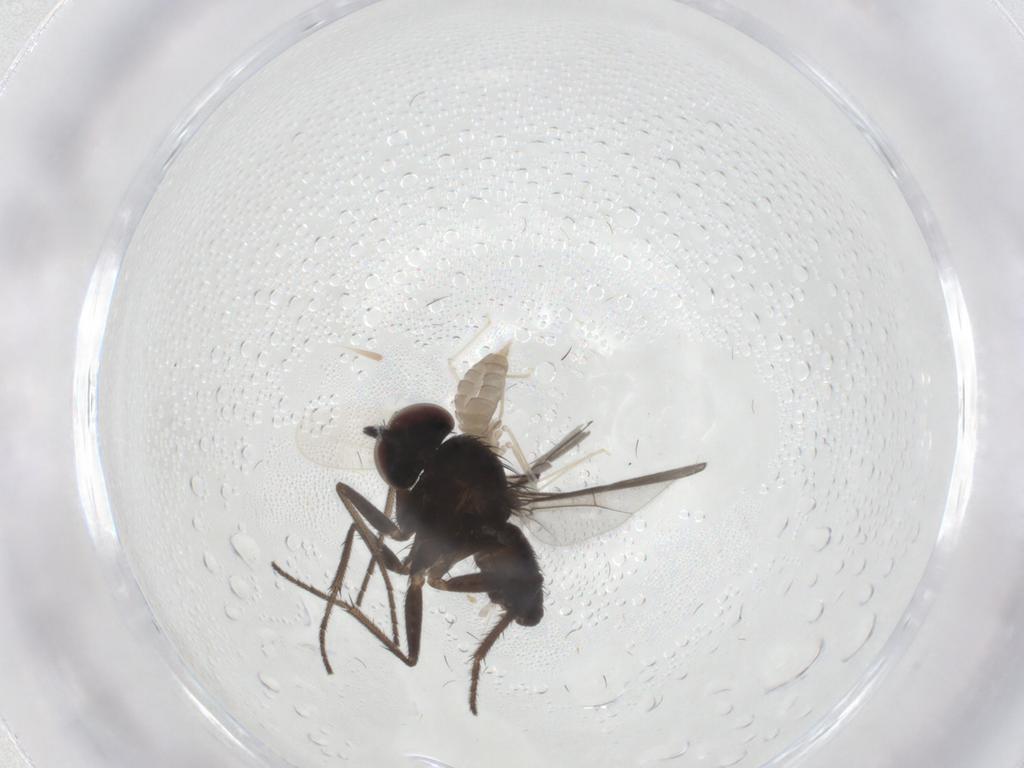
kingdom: Animalia
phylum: Arthropoda
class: Insecta
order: Diptera
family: Dolichopodidae
